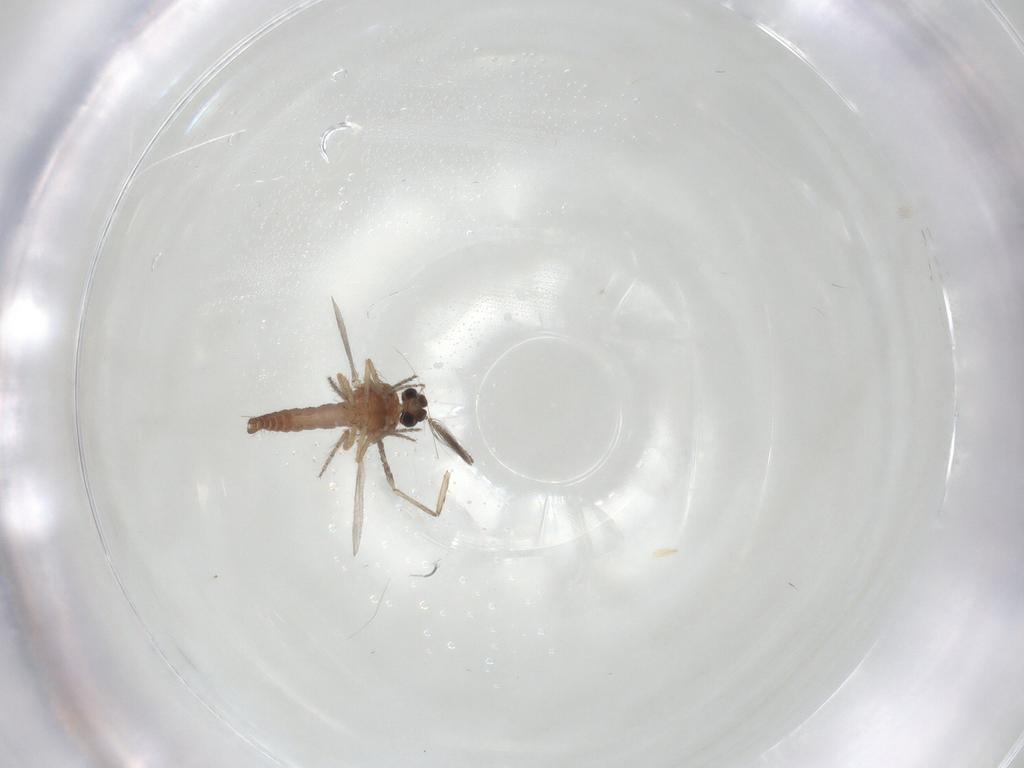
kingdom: Animalia
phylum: Arthropoda
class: Insecta
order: Diptera
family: Ceratopogonidae
